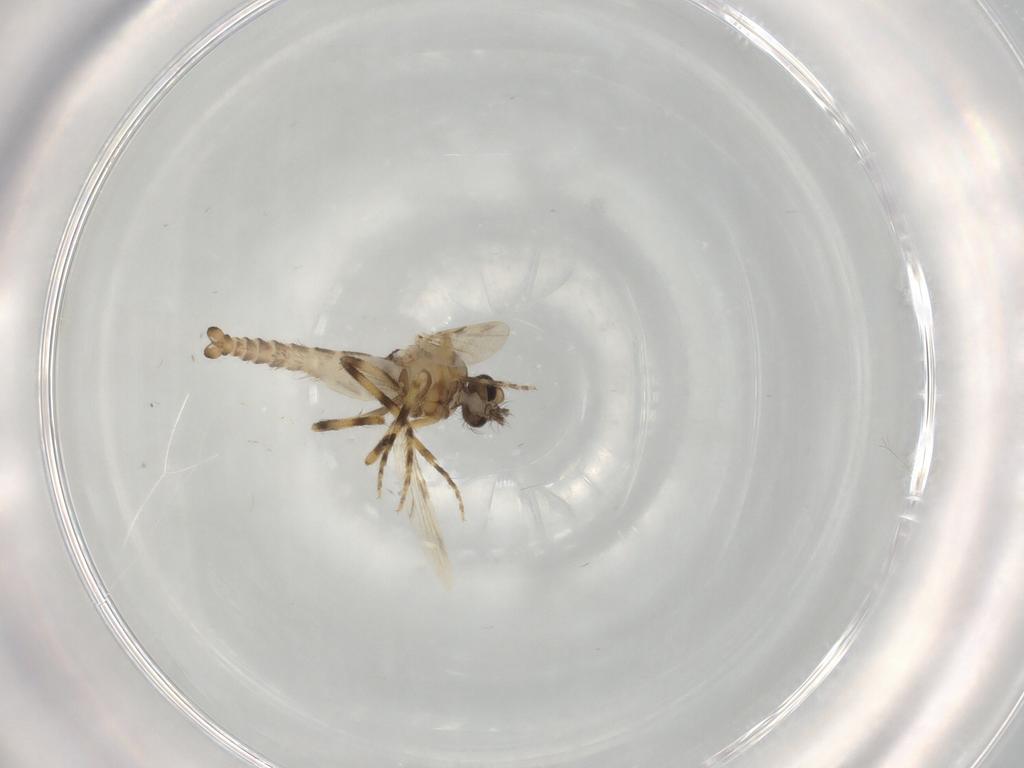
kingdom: Animalia
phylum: Arthropoda
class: Insecta
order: Diptera
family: Ceratopogonidae
